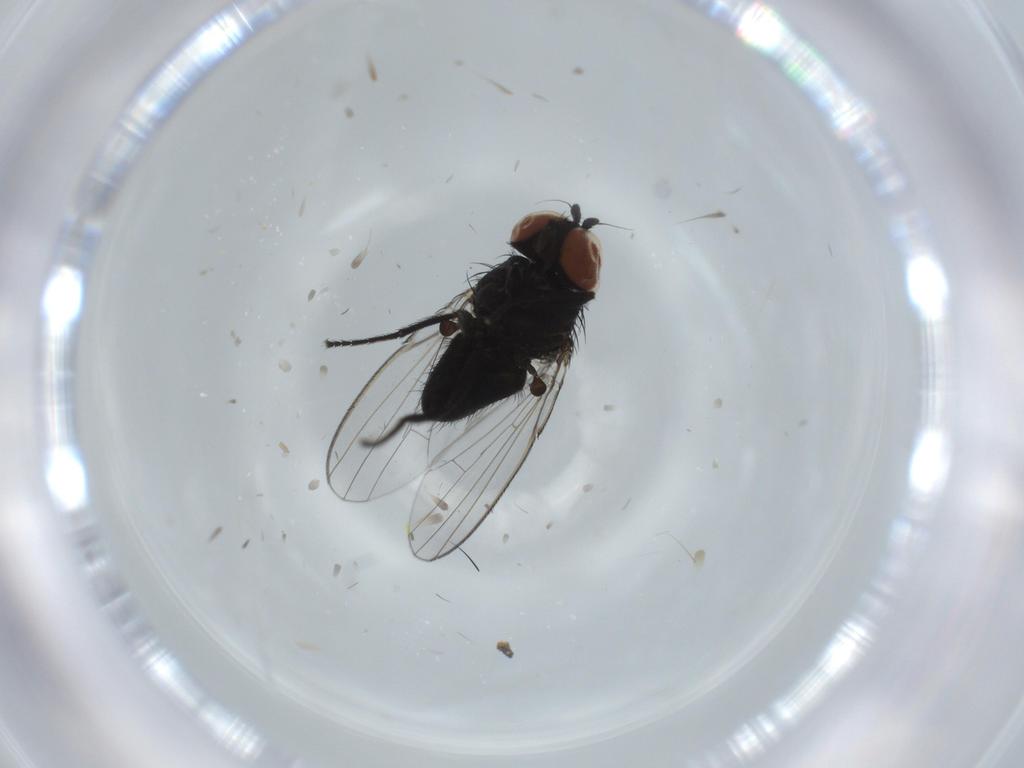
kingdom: Animalia
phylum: Arthropoda
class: Insecta
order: Diptera
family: Milichiidae
